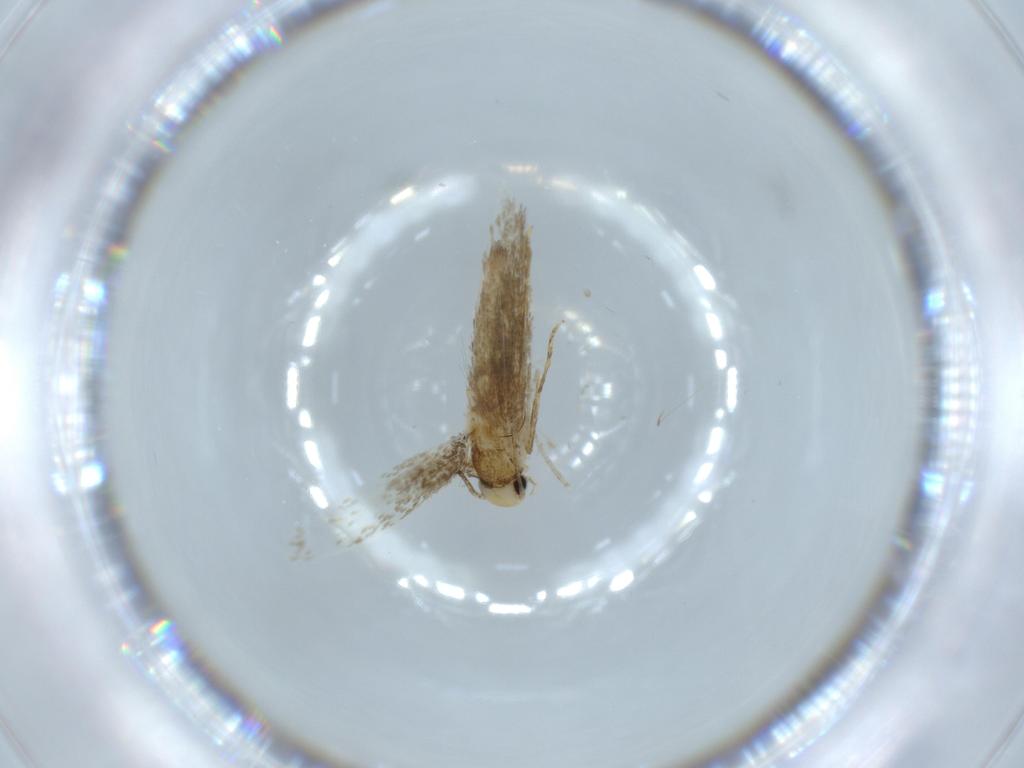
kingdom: Animalia
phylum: Arthropoda
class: Insecta
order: Lepidoptera
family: Tineidae
